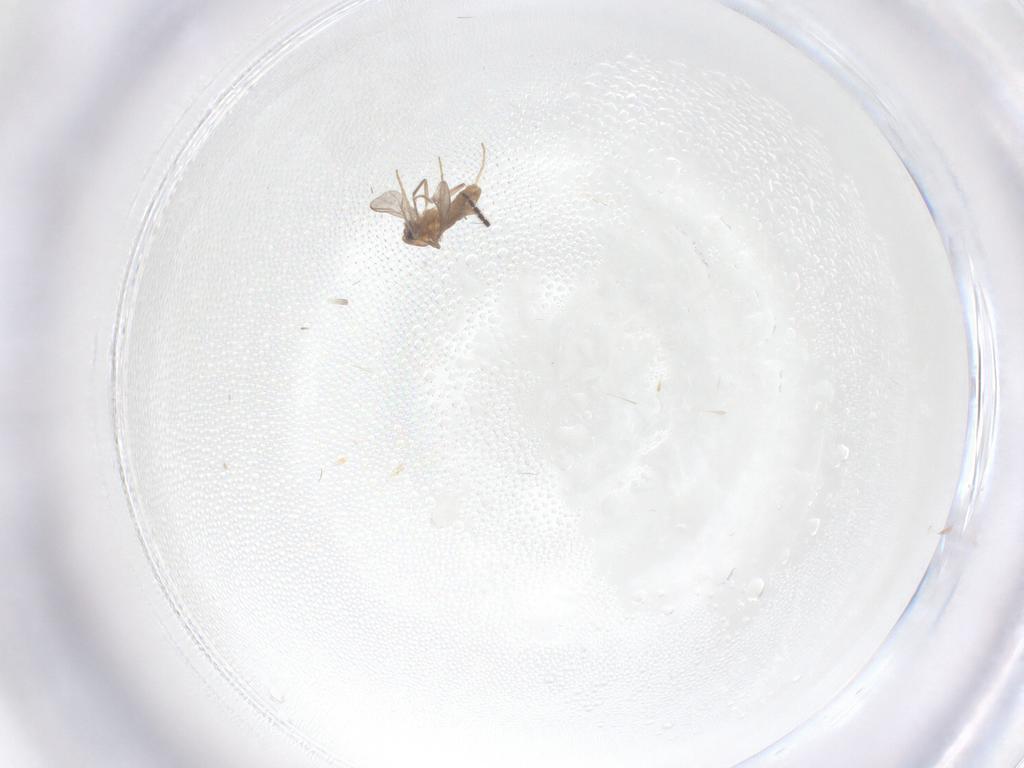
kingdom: Animalia
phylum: Arthropoda
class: Insecta
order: Diptera
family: Chironomidae
